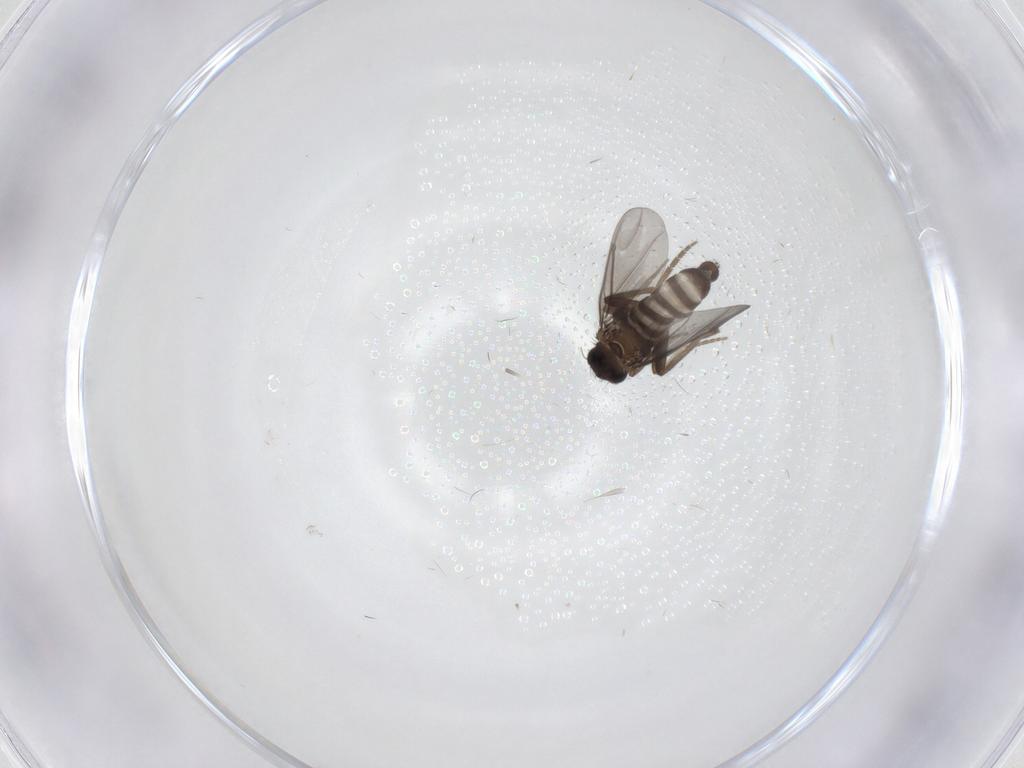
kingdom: Animalia
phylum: Arthropoda
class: Insecta
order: Diptera
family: Phoridae
